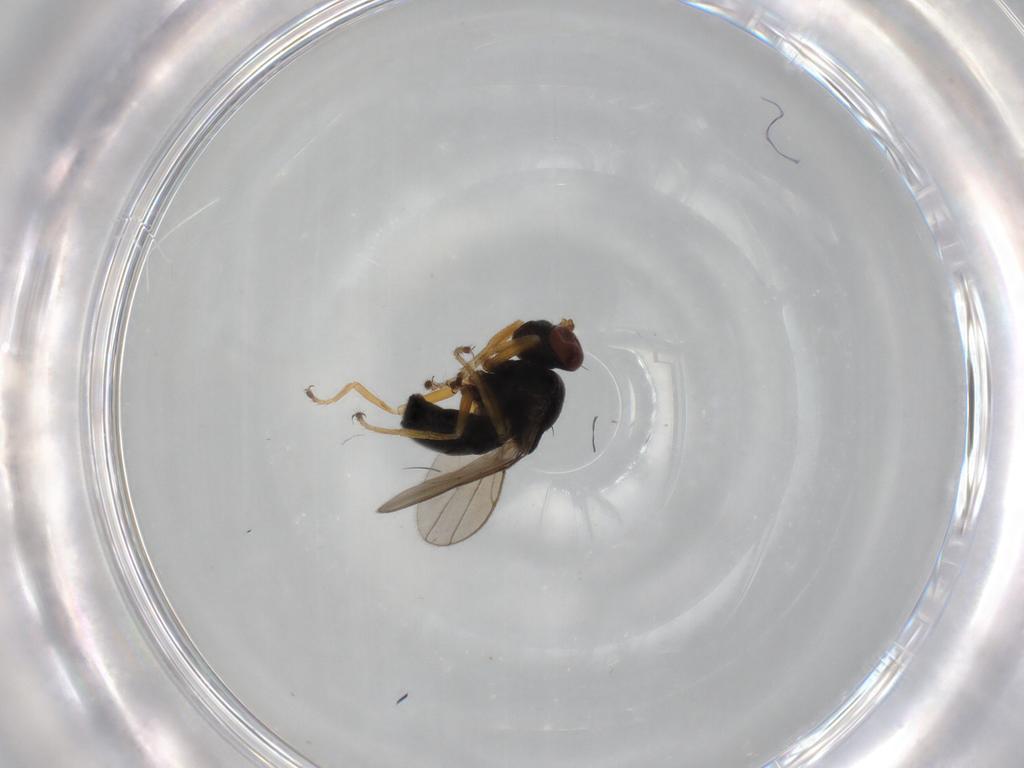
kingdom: Animalia
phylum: Arthropoda
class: Insecta
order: Diptera
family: Ephydridae
